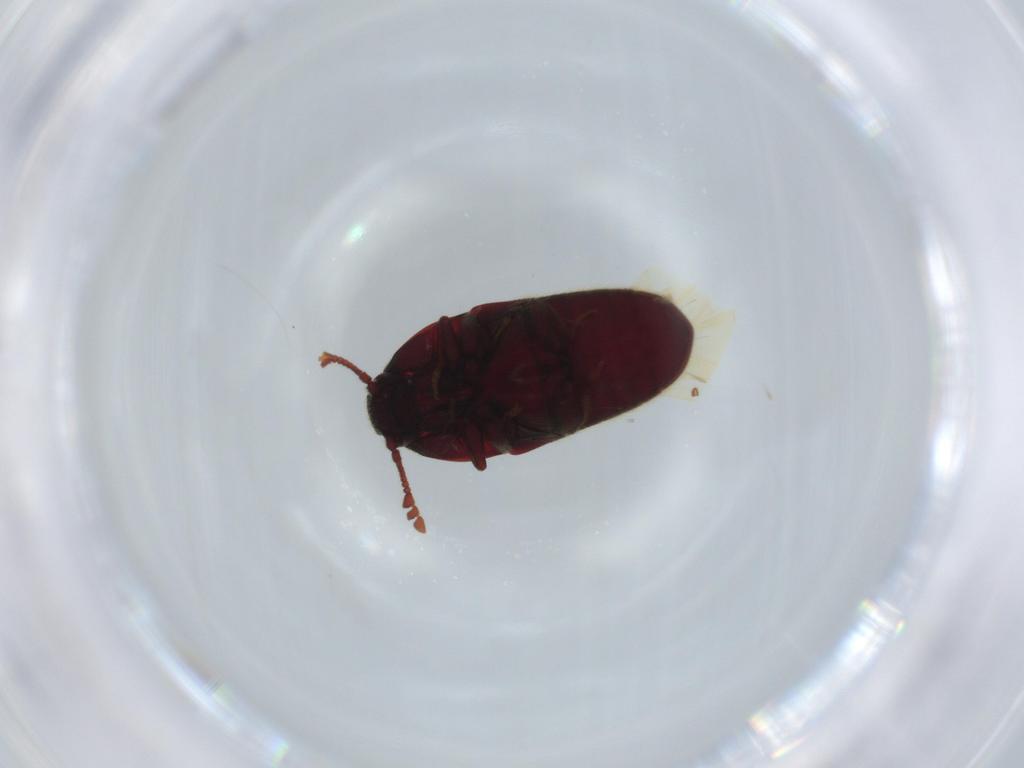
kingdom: Animalia
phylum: Arthropoda
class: Insecta
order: Coleoptera
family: Throscidae
